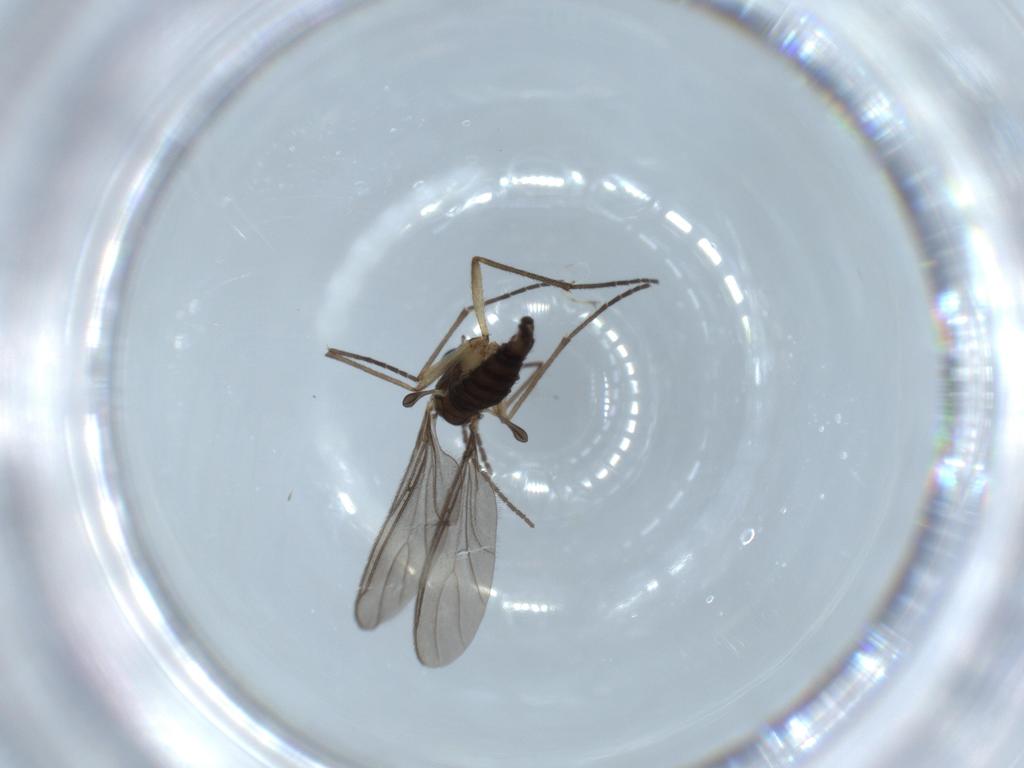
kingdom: Animalia
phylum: Arthropoda
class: Insecta
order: Diptera
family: Sciaridae
